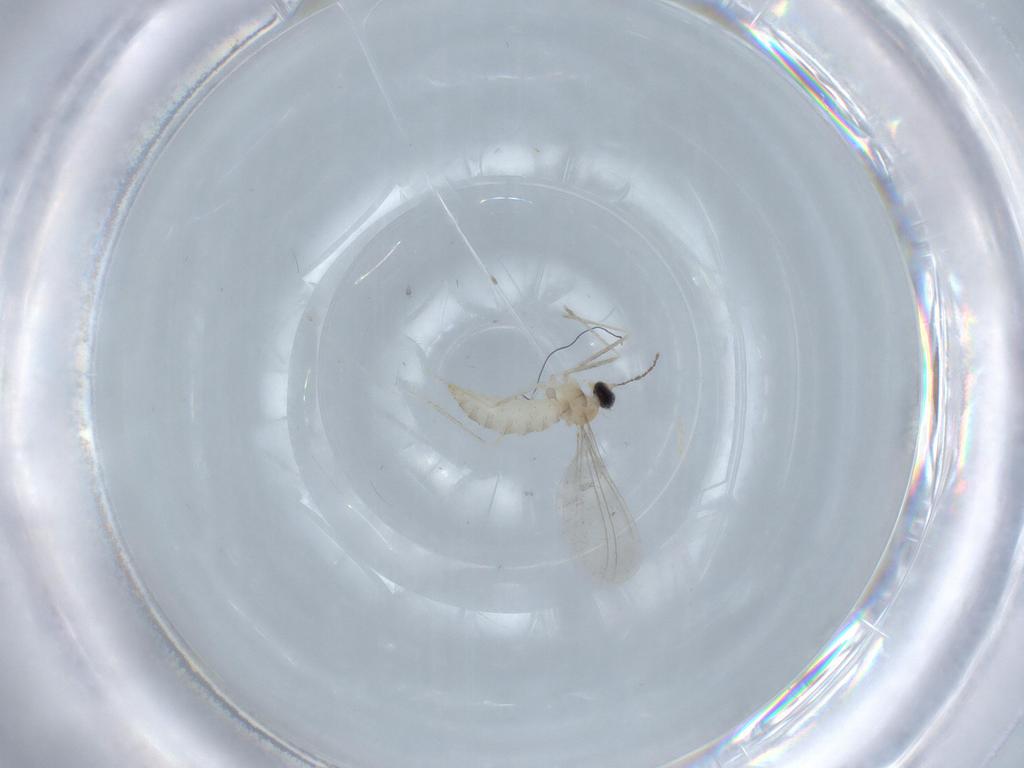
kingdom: Animalia
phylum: Arthropoda
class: Insecta
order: Diptera
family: Cecidomyiidae
